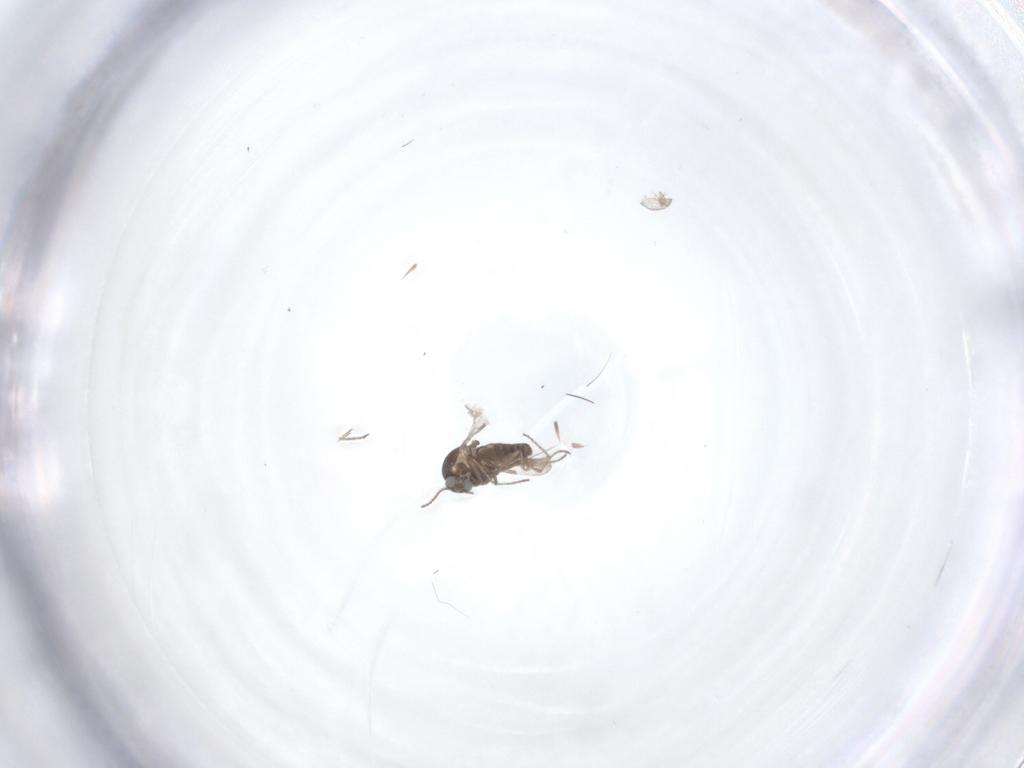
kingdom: Animalia
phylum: Arthropoda
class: Insecta
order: Diptera
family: Ceratopogonidae
